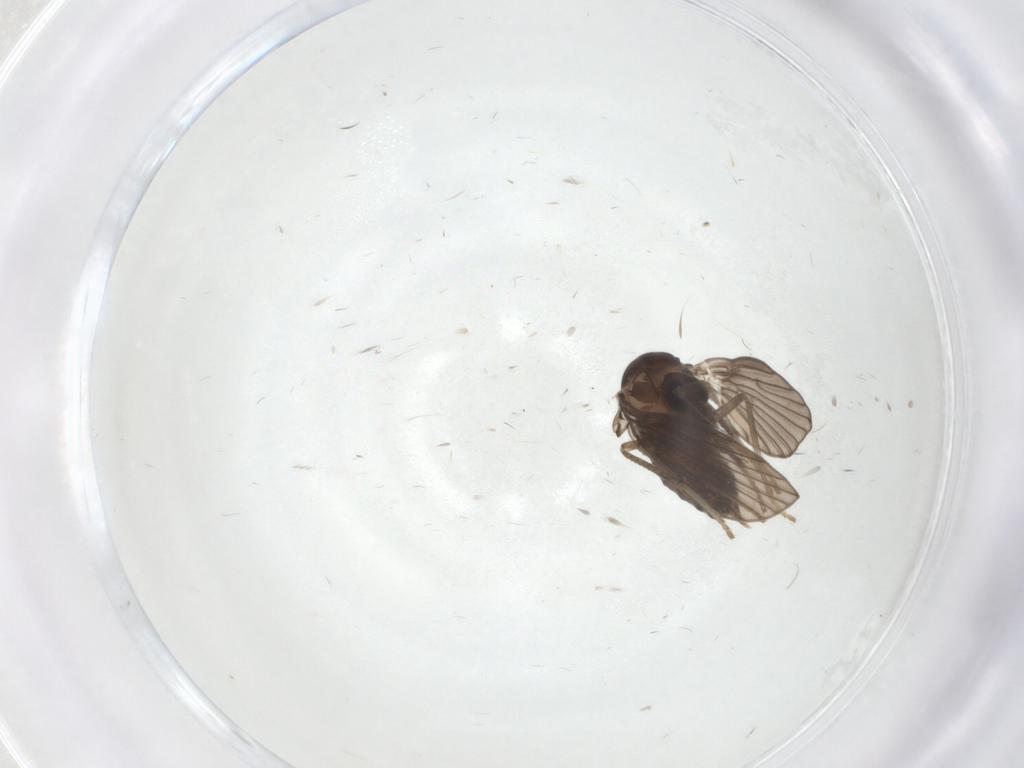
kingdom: Animalia
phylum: Arthropoda
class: Insecta
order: Diptera
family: Psychodidae
